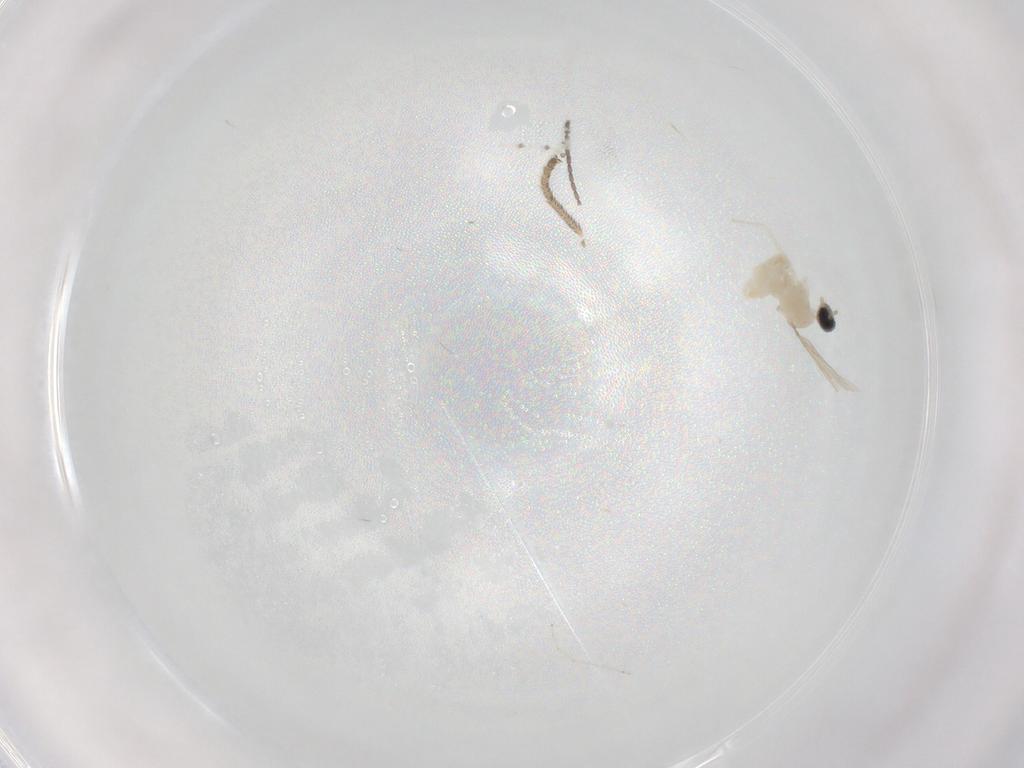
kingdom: Animalia
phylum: Arthropoda
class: Insecta
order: Diptera
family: Cecidomyiidae
